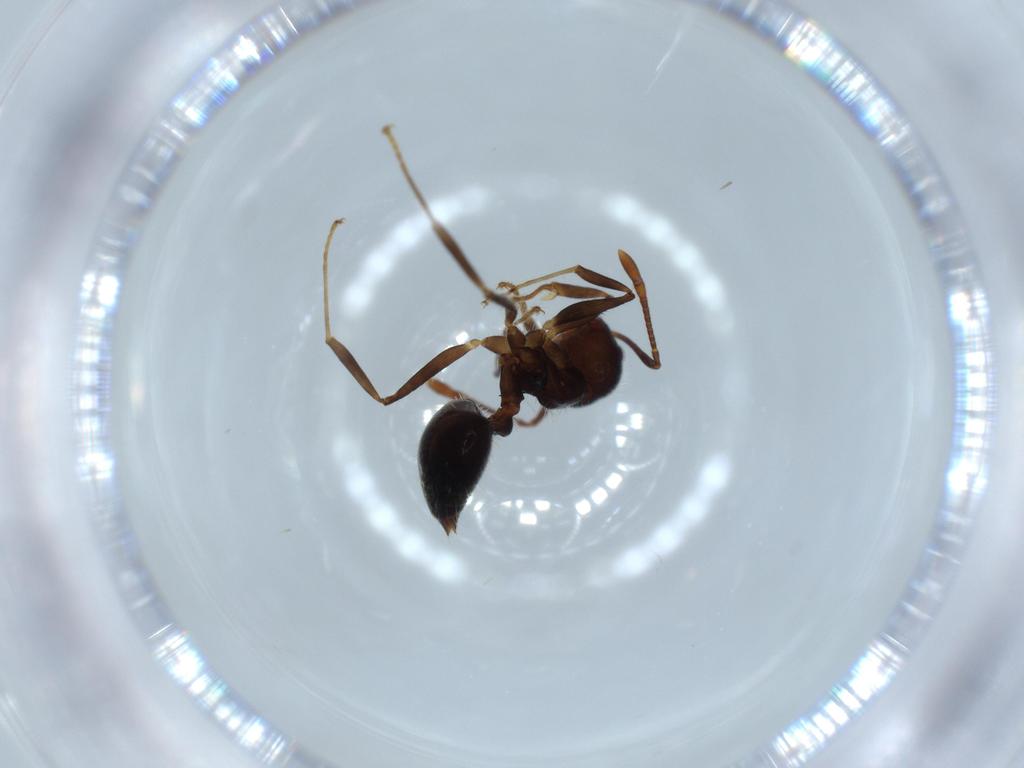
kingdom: Animalia
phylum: Arthropoda
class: Insecta
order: Hymenoptera
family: Formicidae
